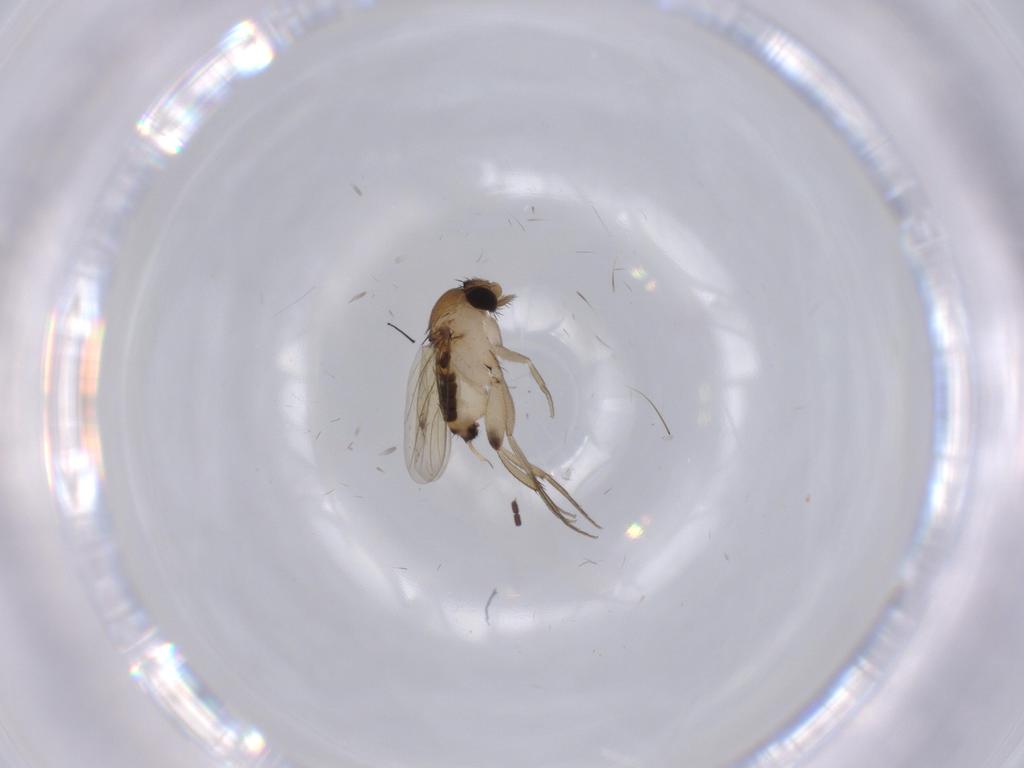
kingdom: Animalia
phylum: Arthropoda
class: Insecta
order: Diptera
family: Sciaridae
